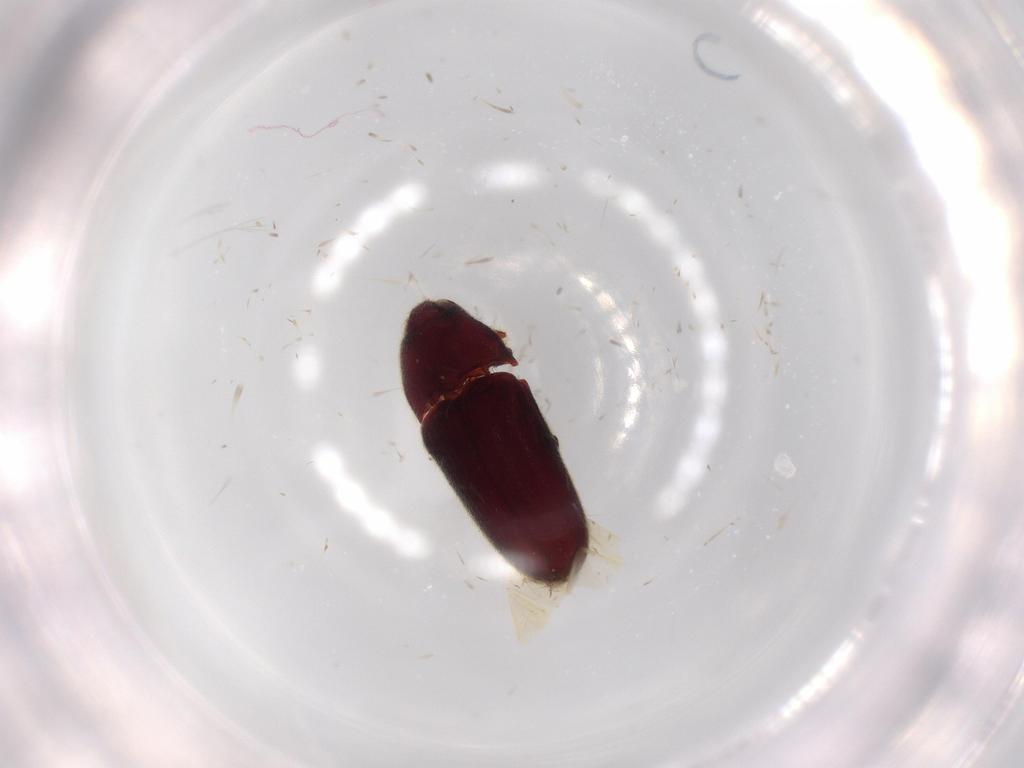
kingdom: Animalia
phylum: Arthropoda
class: Insecta
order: Coleoptera
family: Throscidae
